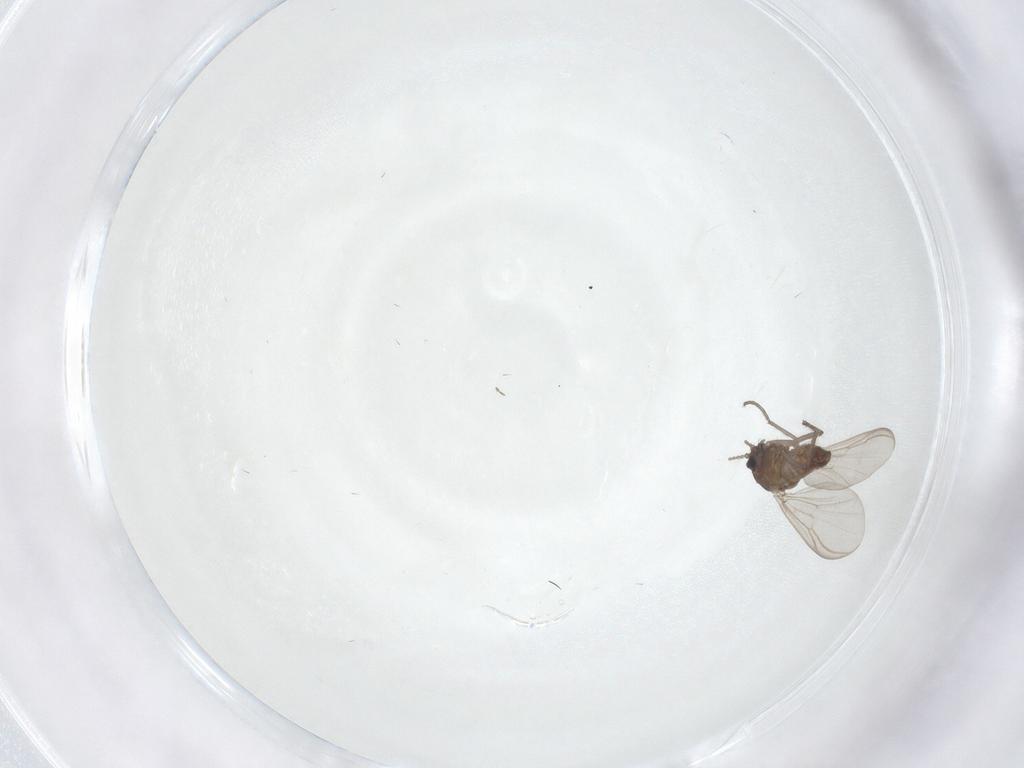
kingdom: Animalia
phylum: Arthropoda
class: Insecta
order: Diptera
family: Chironomidae
